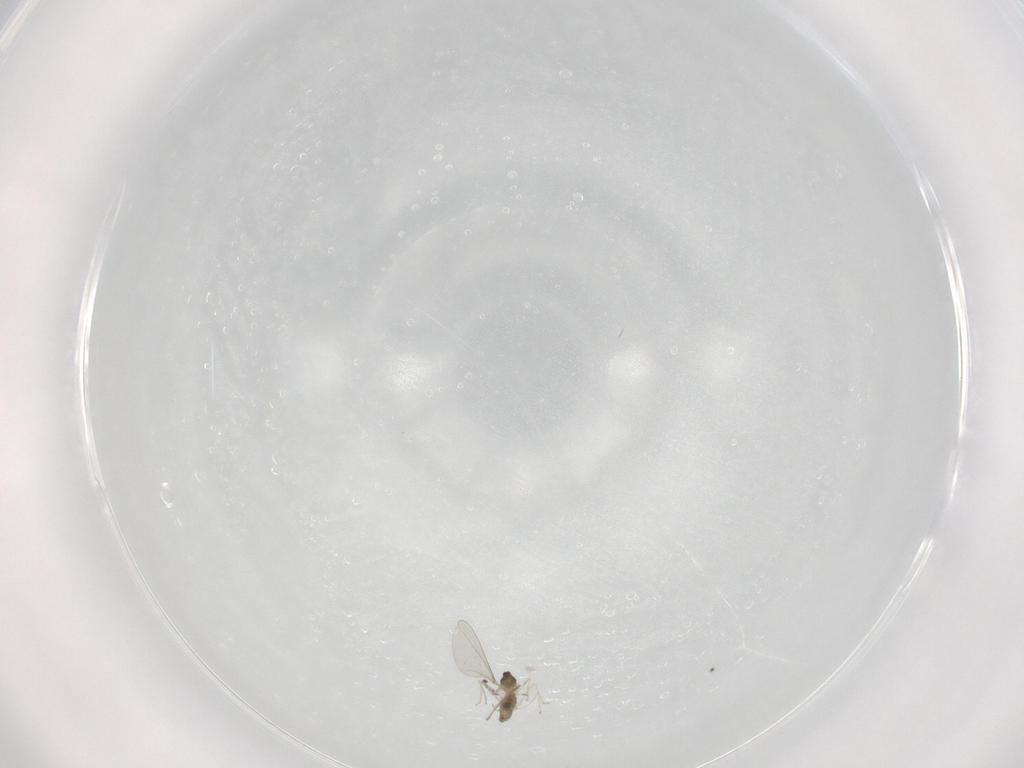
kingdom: Animalia
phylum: Arthropoda
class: Insecta
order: Diptera
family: Cecidomyiidae
